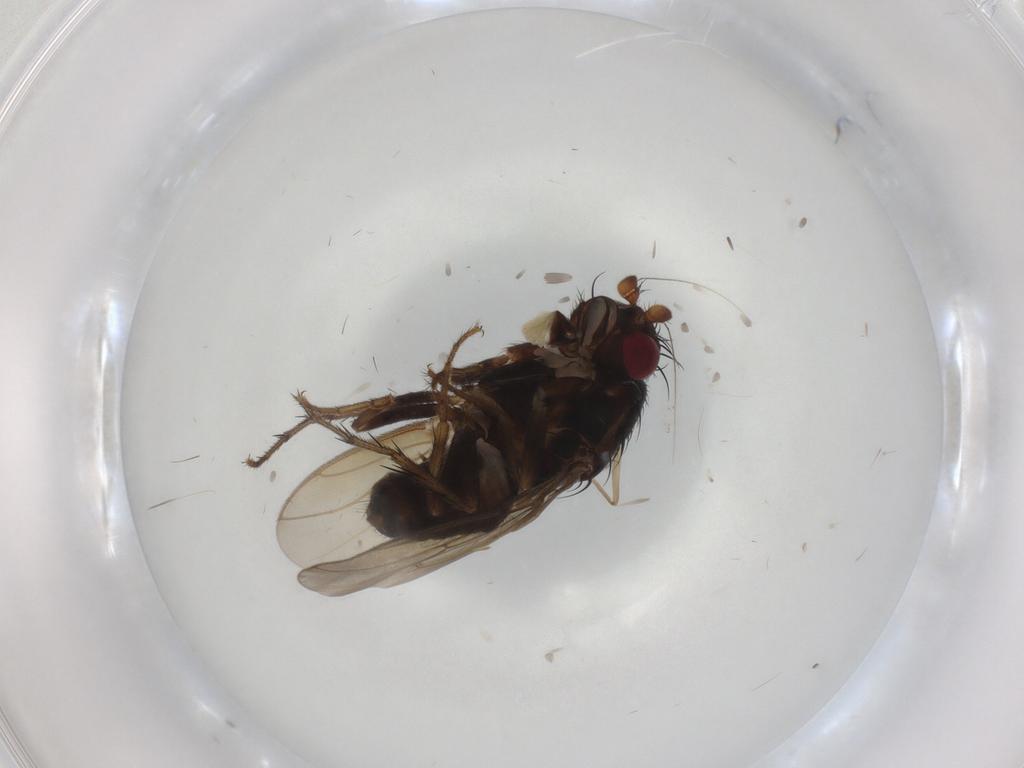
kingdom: Animalia
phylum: Arthropoda
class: Insecta
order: Diptera
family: Sphaeroceridae
